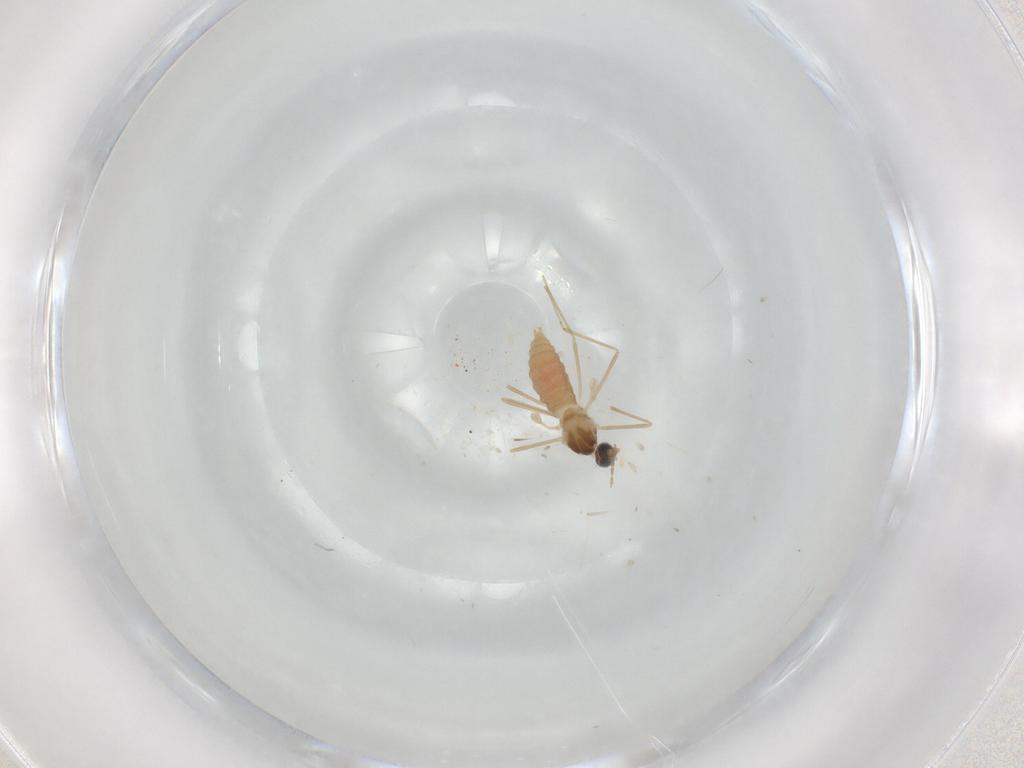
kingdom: Animalia
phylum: Arthropoda
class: Insecta
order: Diptera
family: Cecidomyiidae
